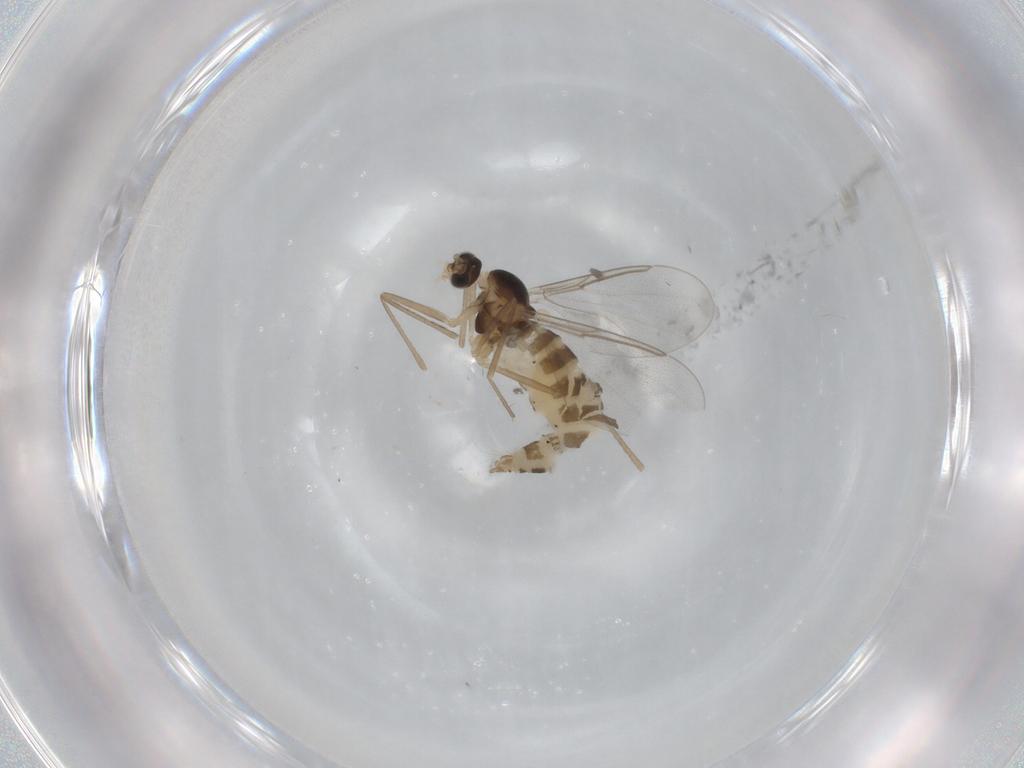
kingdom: Animalia
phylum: Arthropoda
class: Insecta
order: Diptera
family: Cecidomyiidae
